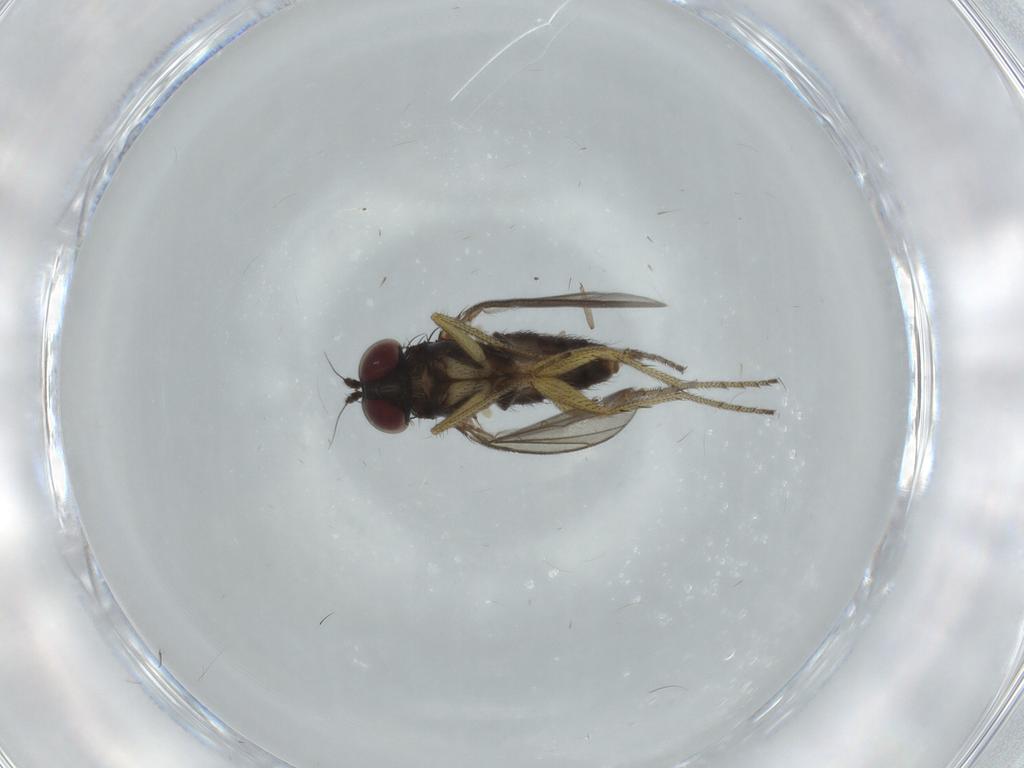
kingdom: Animalia
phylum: Arthropoda
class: Insecta
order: Diptera
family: Dolichopodidae
